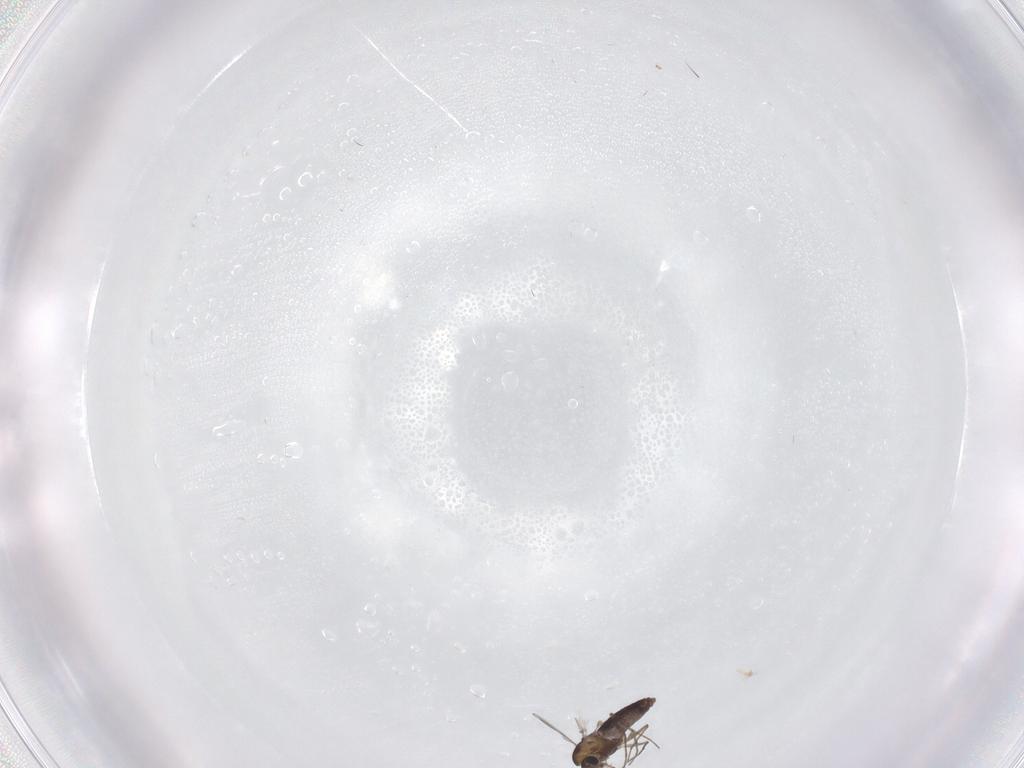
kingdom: Animalia
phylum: Arthropoda
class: Insecta
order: Diptera
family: Chironomidae
